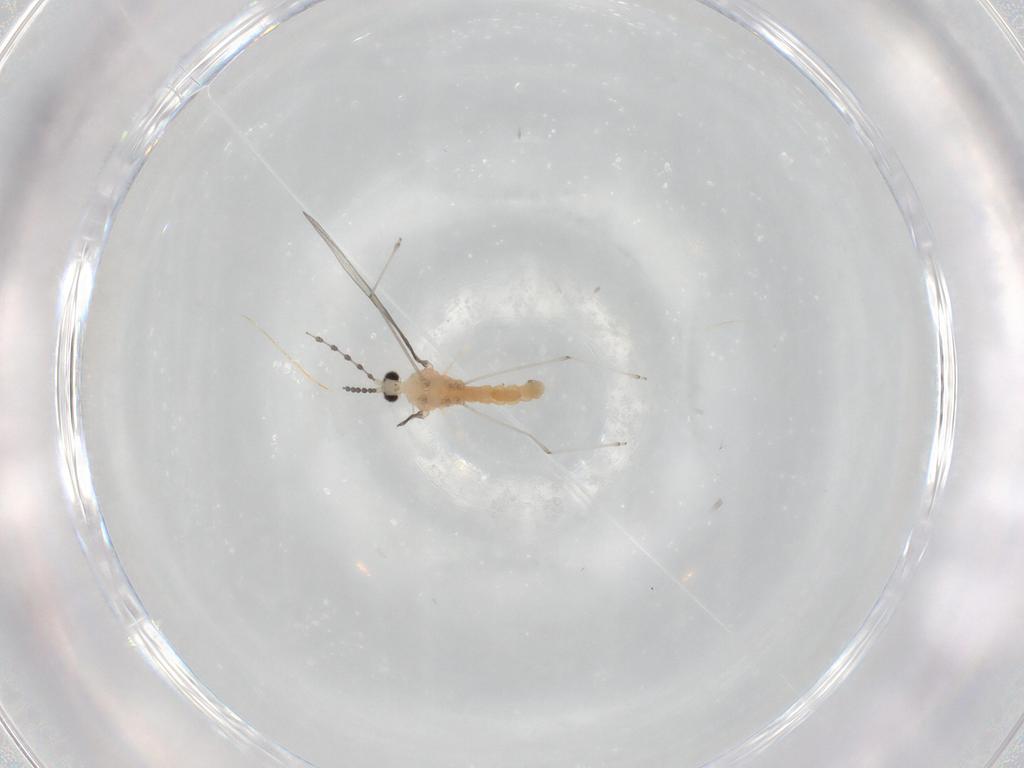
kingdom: Animalia
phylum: Arthropoda
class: Insecta
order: Diptera
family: Cecidomyiidae
